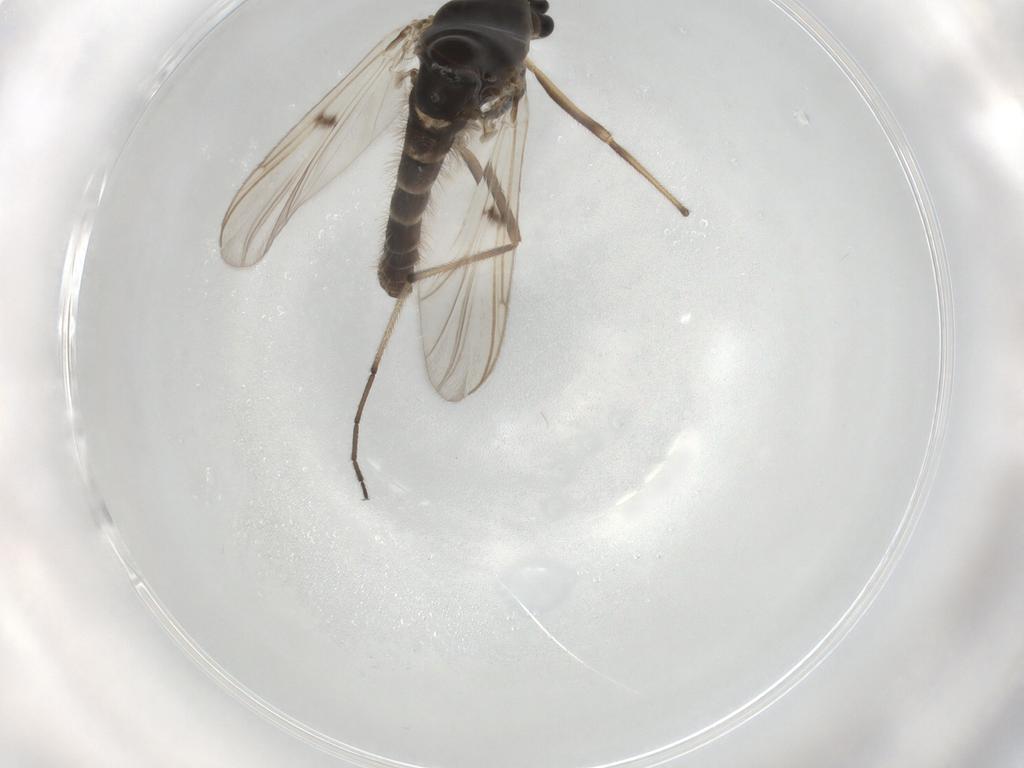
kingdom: Animalia
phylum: Arthropoda
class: Insecta
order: Diptera
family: Chironomidae
